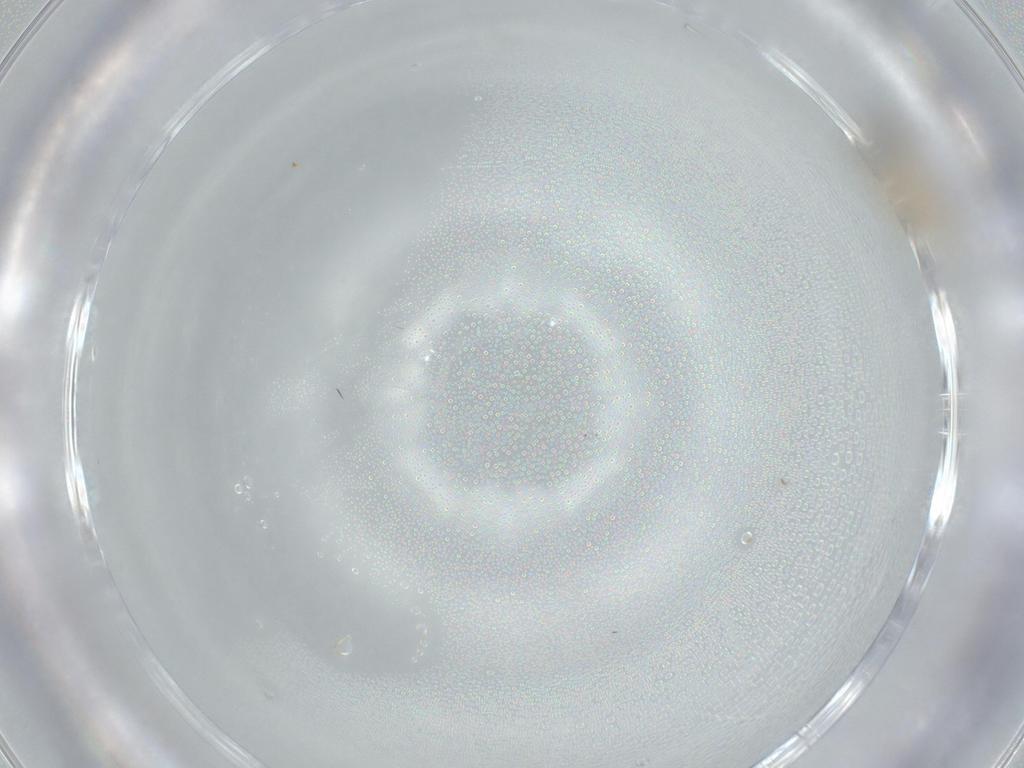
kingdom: Animalia
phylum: Arthropoda
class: Insecta
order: Orthoptera
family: Gryllidae
